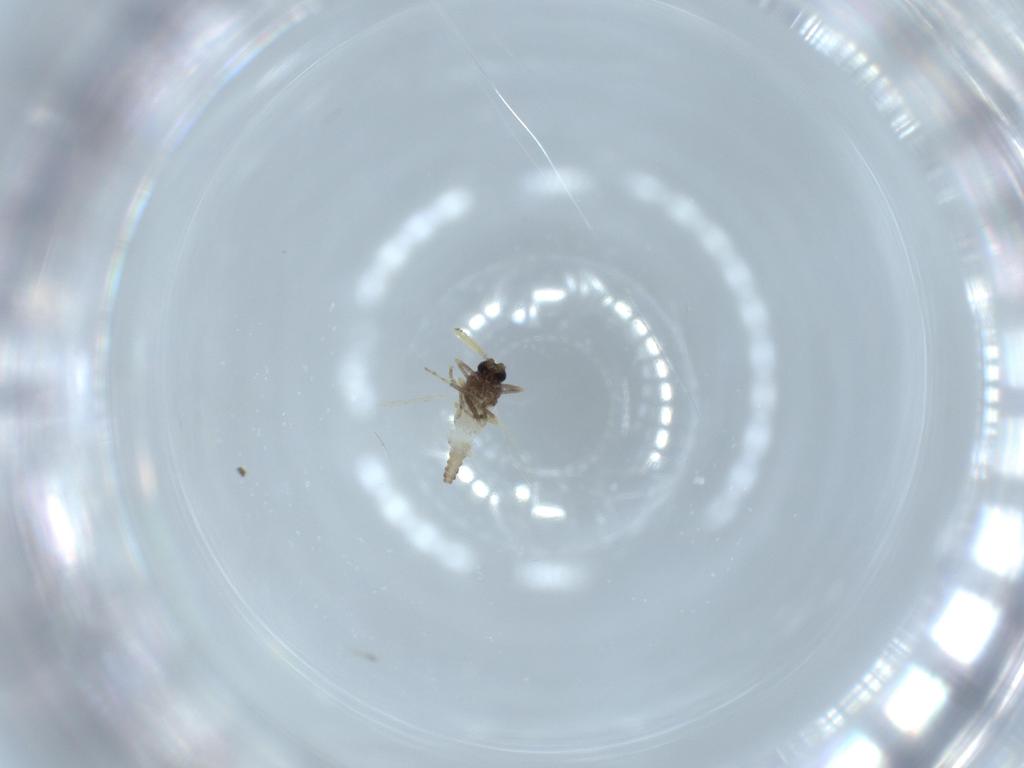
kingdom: Animalia
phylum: Arthropoda
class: Insecta
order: Diptera
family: Ceratopogonidae
